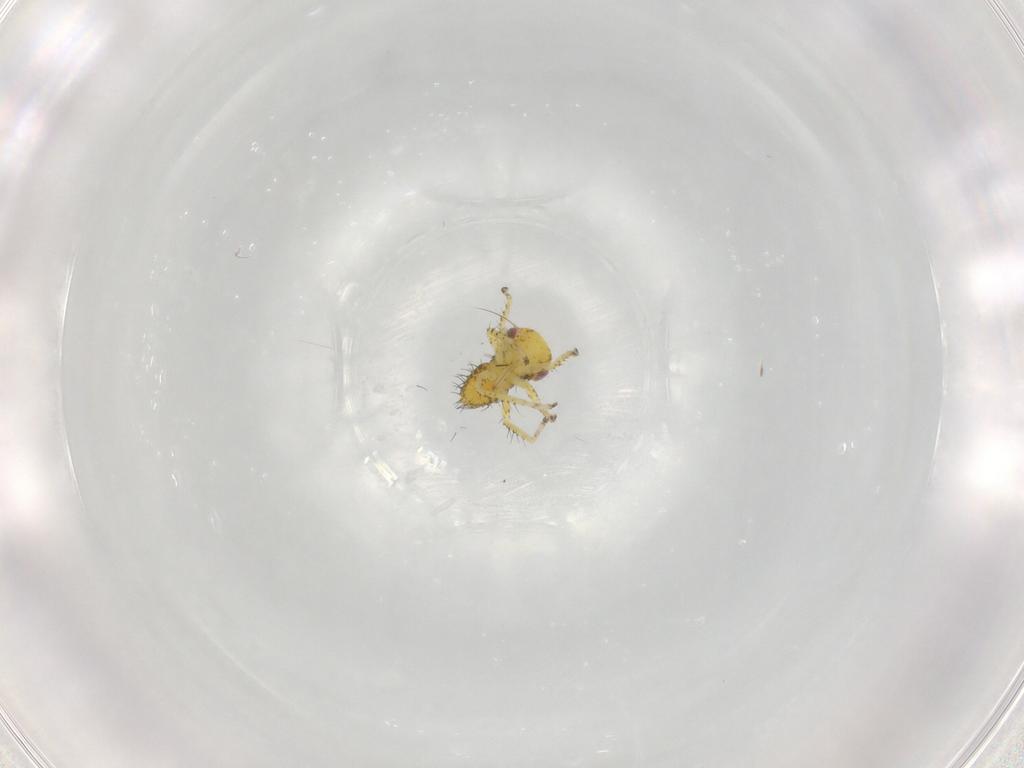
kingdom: Animalia
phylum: Arthropoda
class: Insecta
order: Hemiptera
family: Cicadellidae
